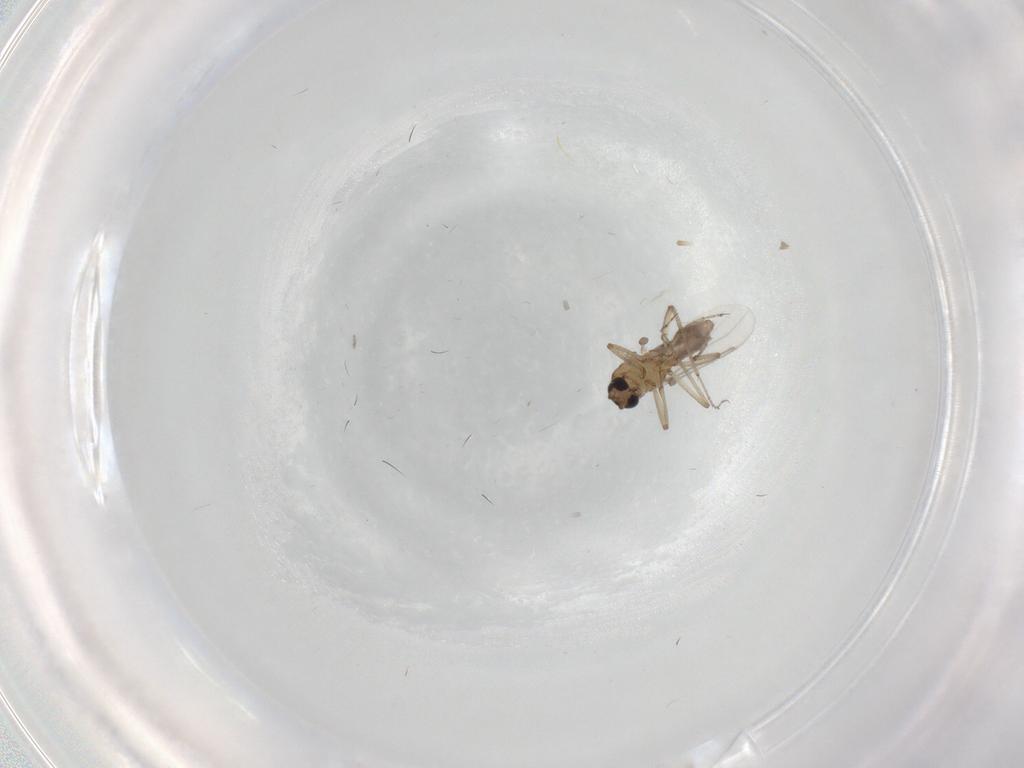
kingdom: Animalia
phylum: Arthropoda
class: Insecta
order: Diptera
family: Ceratopogonidae
